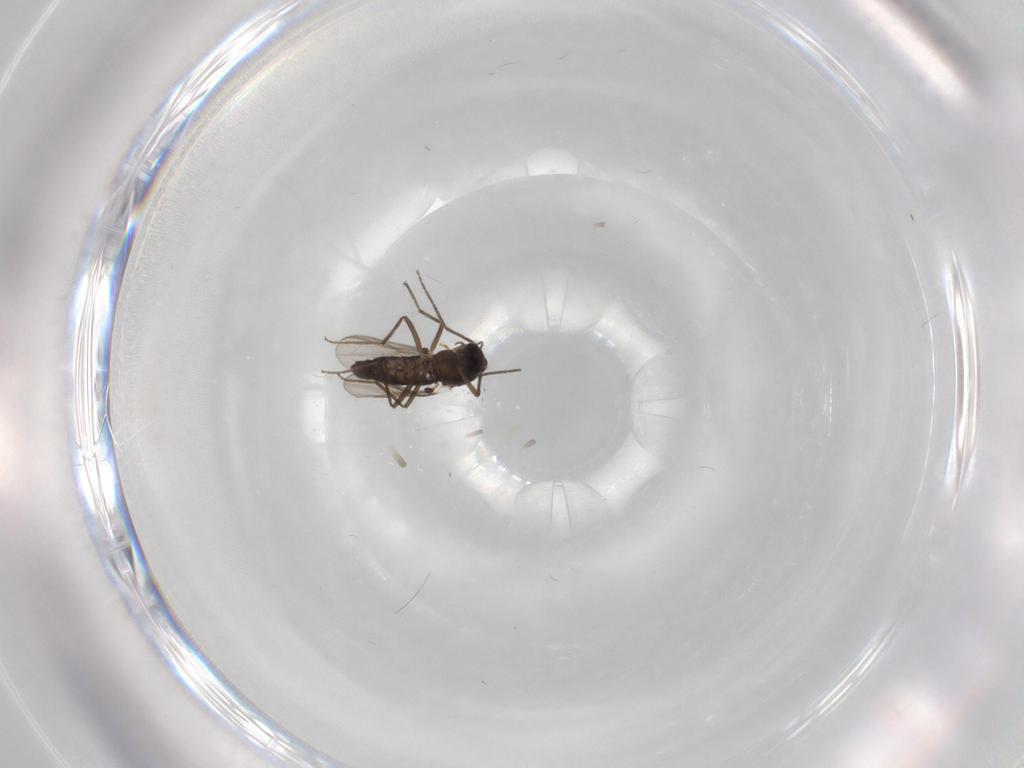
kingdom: Animalia
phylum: Arthropoda
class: Insecta
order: Diptera
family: Chironomidae
